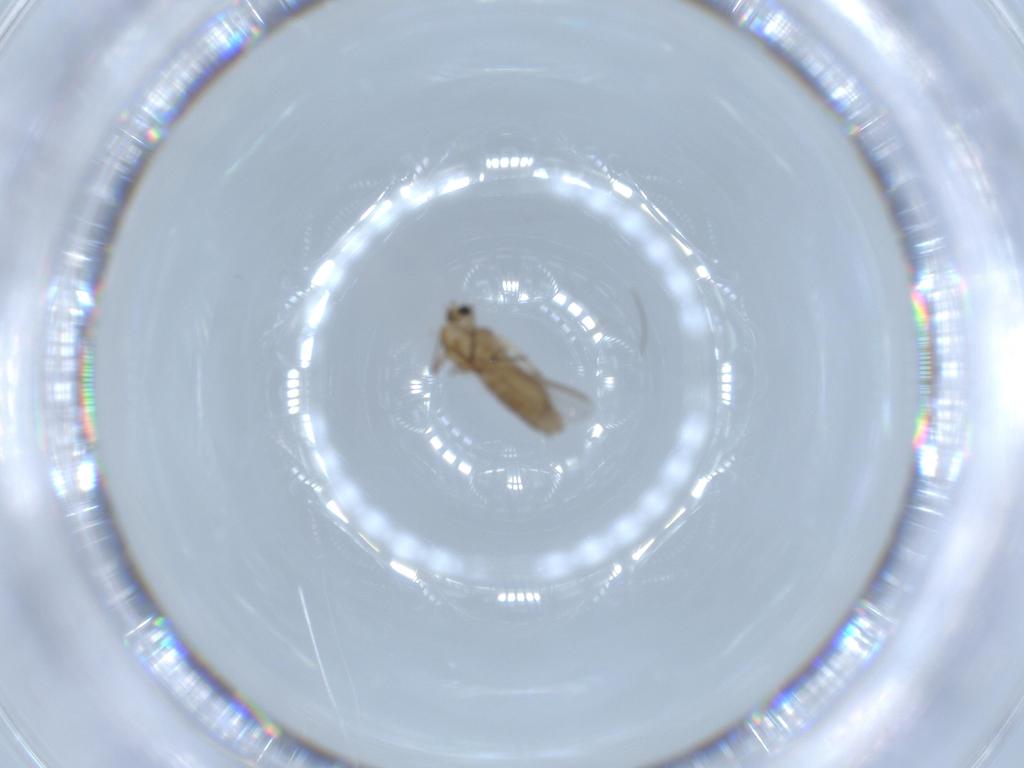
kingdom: Animalia
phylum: Arthropoda
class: Insecta
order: Diptera
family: Chironomidae
